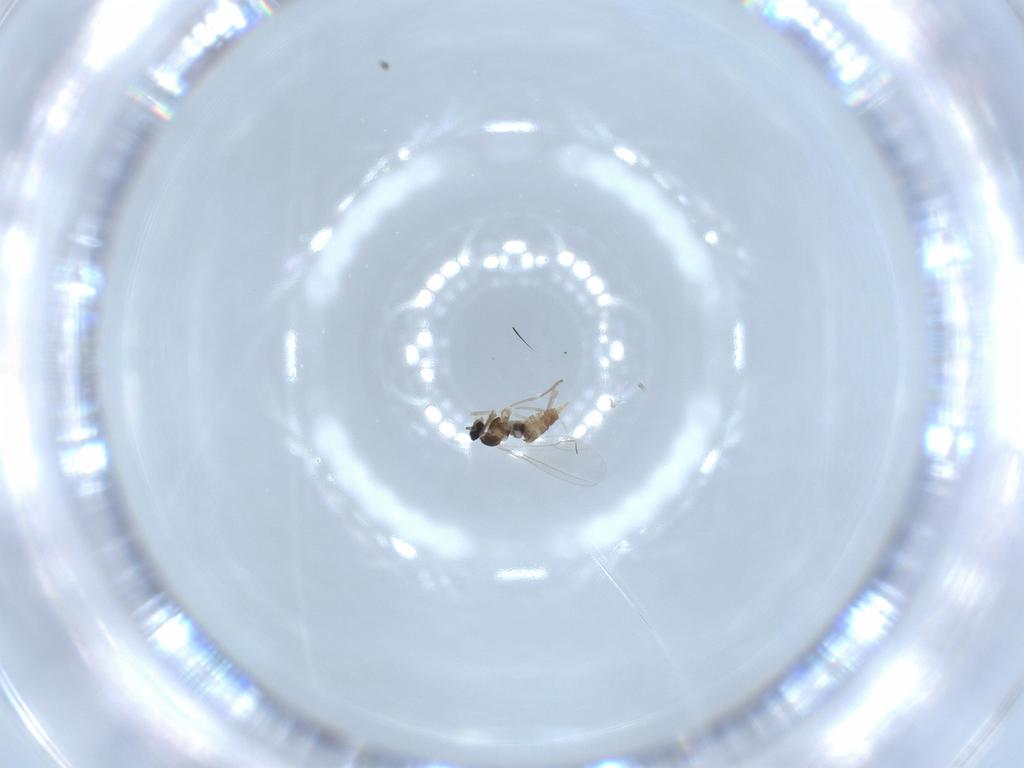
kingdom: Animalia
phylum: Arthropoda
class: Insecta
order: Diptera
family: Cecidomyiidae
